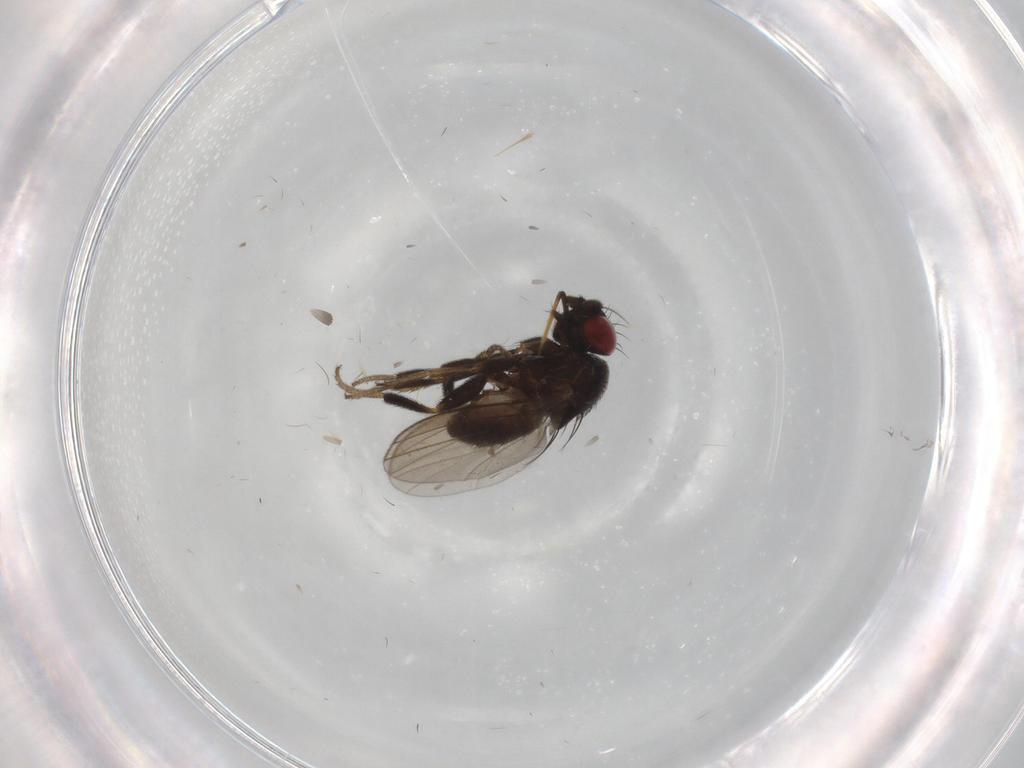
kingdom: Animalia
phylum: Arthropoda
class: Insecta
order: Diptera
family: Milichiidae
